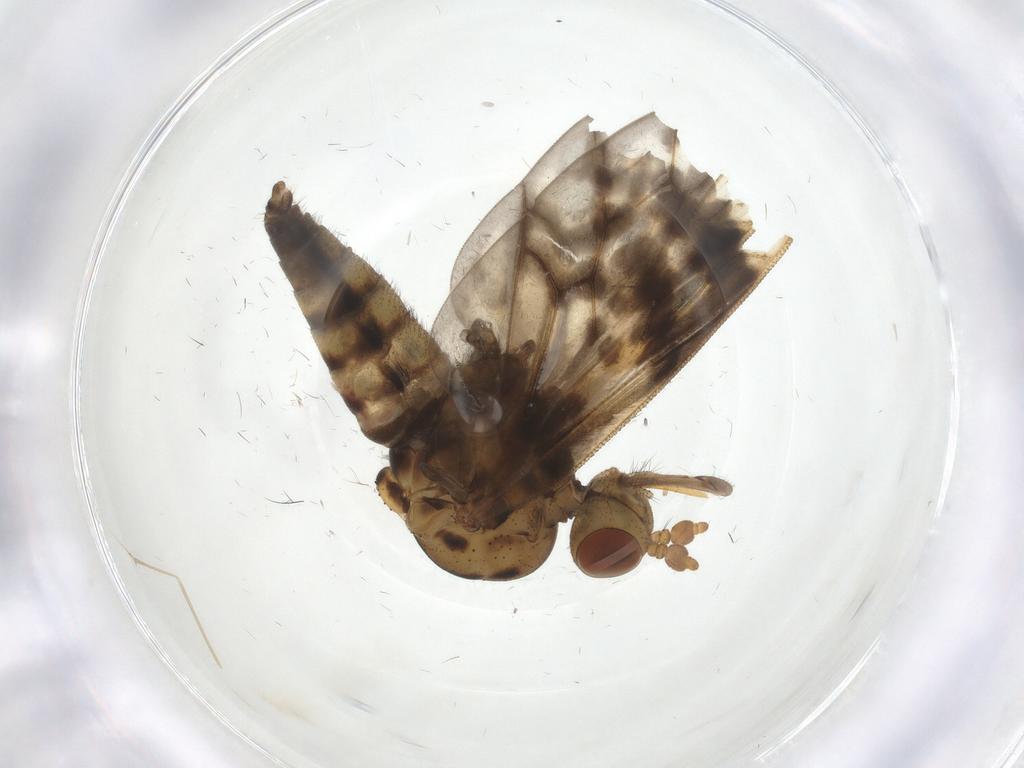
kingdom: Animalia
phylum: Arthropoda
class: Insecta
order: Diptera
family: Austroleptidae
